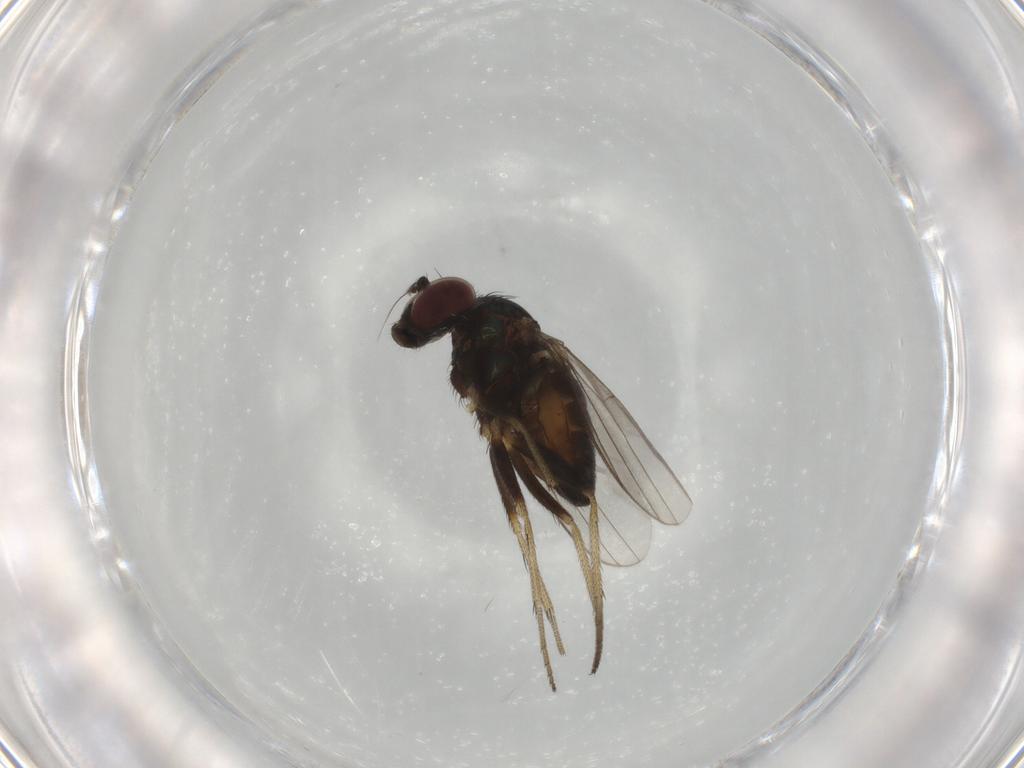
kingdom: Animalia
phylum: Arthropoda
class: Insecta
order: Diptera
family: Dolichopodidae
